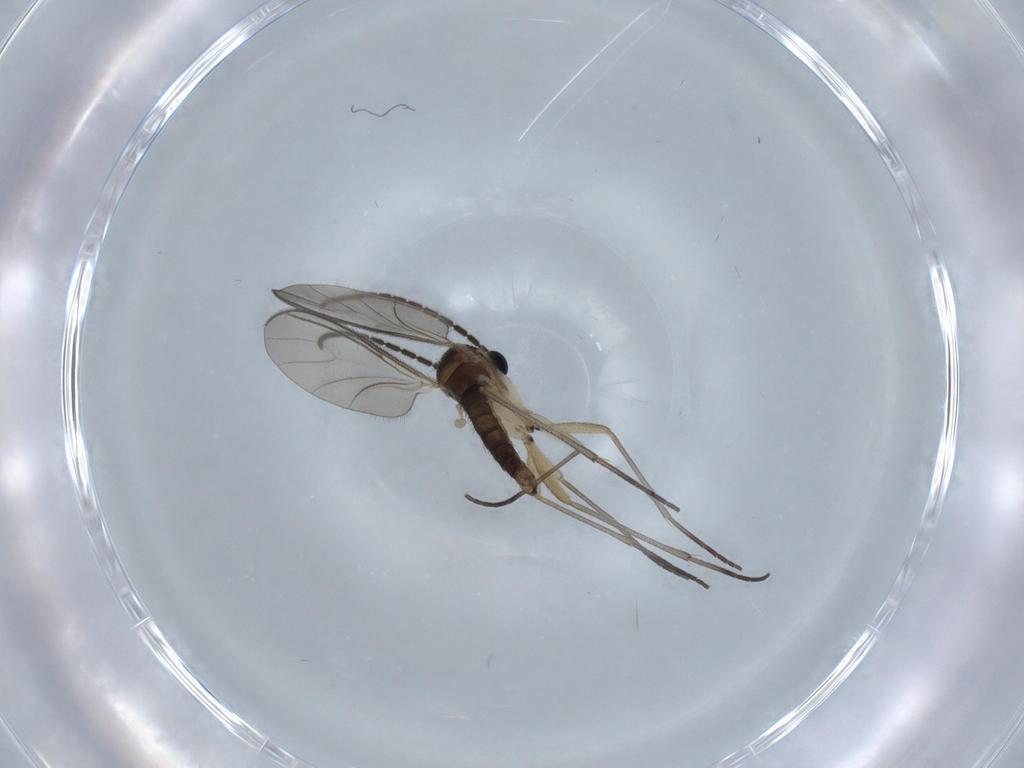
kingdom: Animalia
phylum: Arthropoda
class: Insecta
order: Diptera
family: Sciaridae
